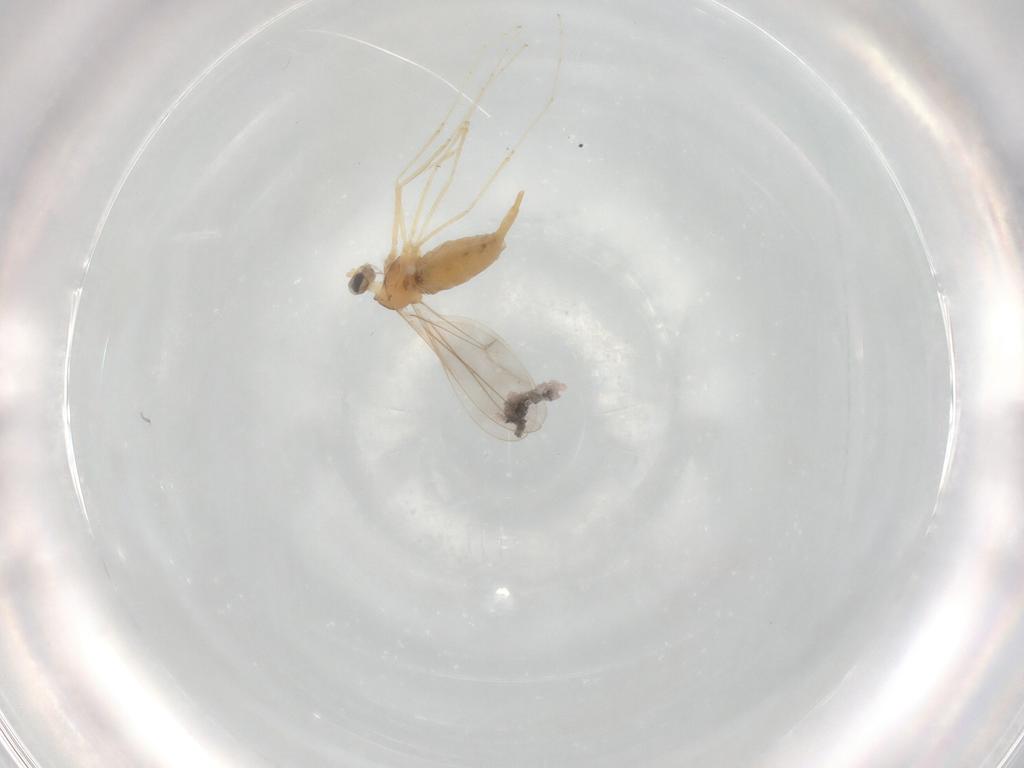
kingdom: Animalia
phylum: Arthropoda
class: Insecta
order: Diptera
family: Cecidomyiidae
